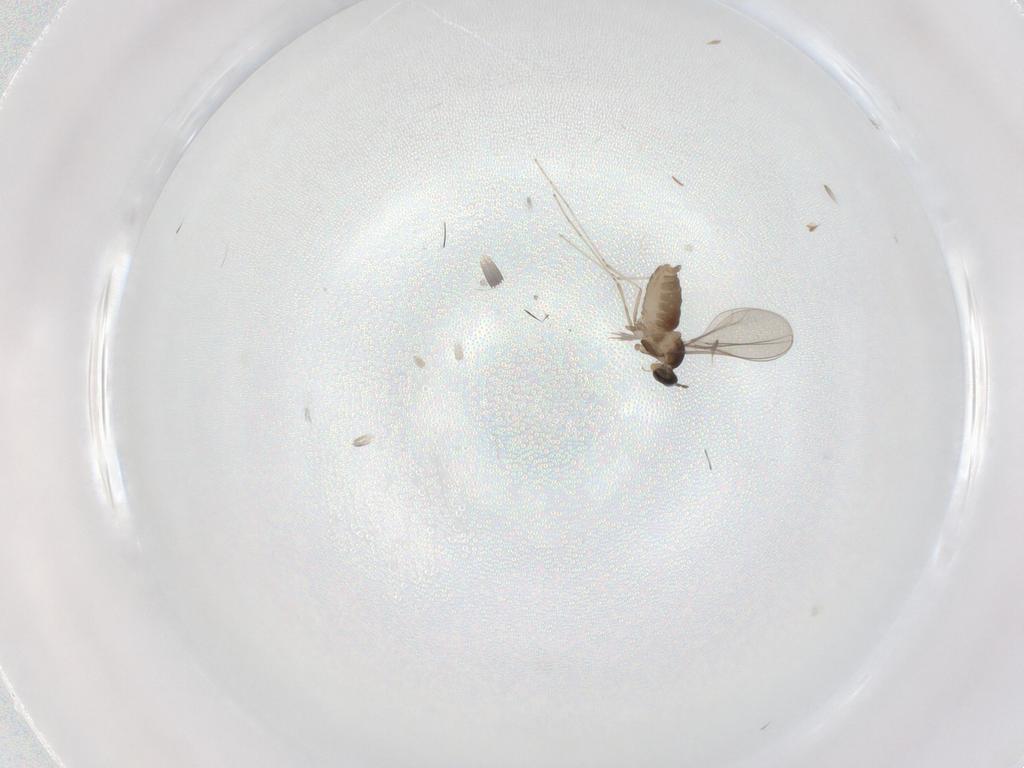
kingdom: Animalia
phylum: Arthropoda
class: Insecta
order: Diptera
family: Cecidomyiidae
